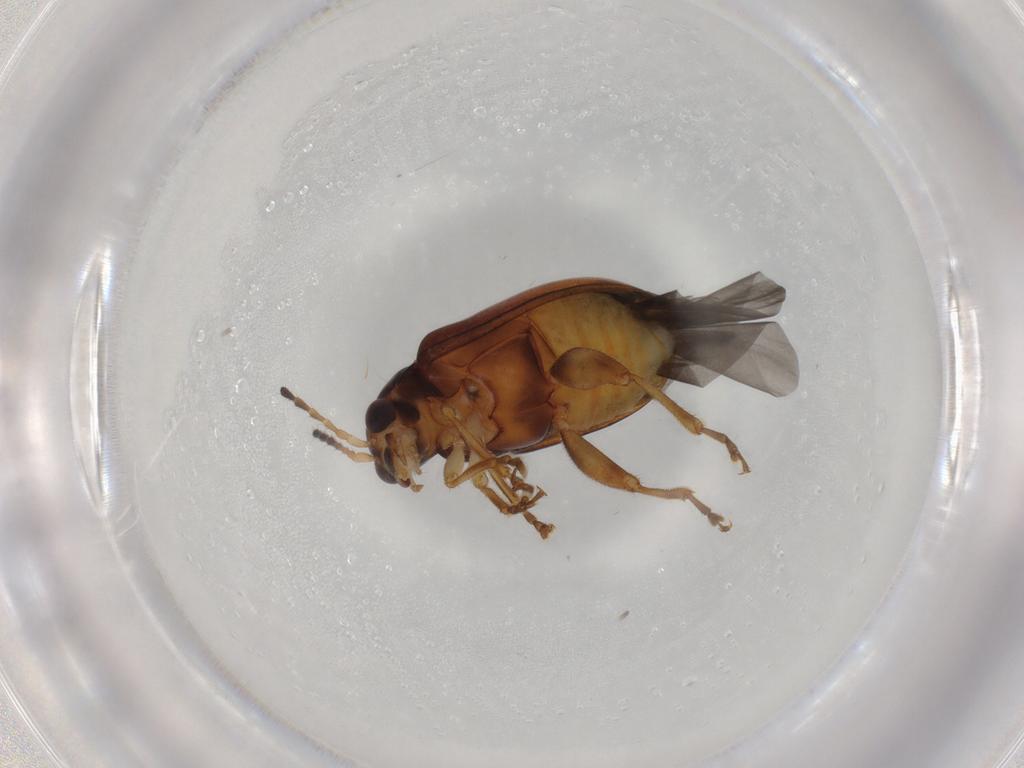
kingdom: Animalia
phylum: Arthropoda
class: Insecta
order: Coleoptera
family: Chrysomelidae
